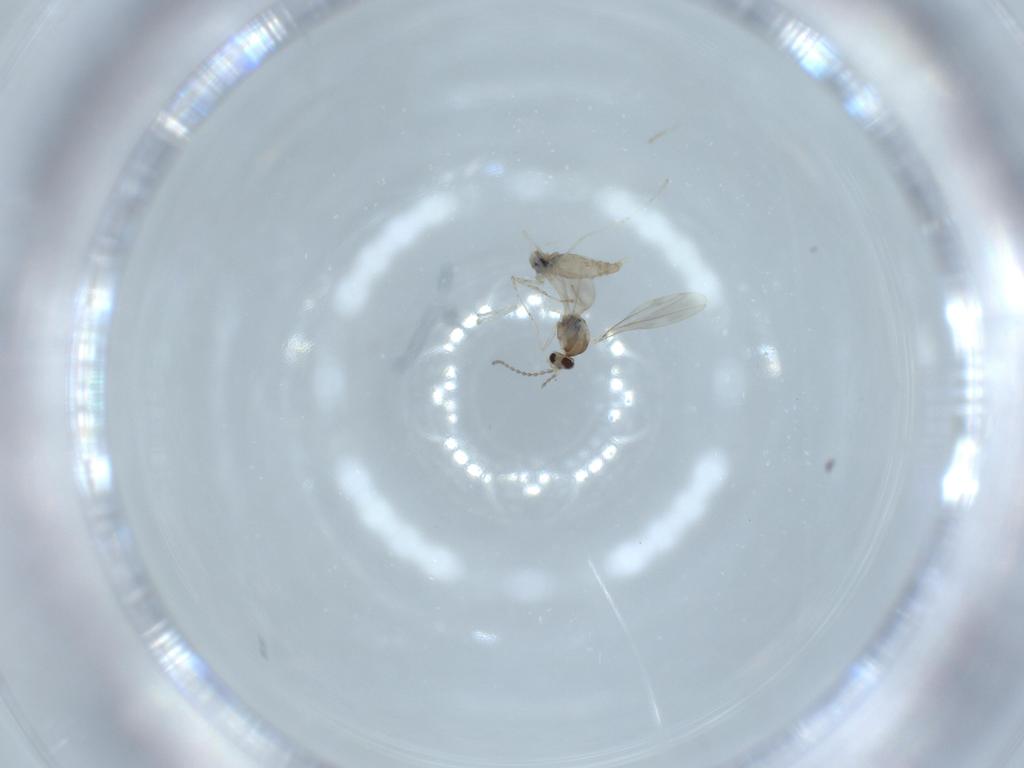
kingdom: Animalia
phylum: Arthropoda
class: Insecta
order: Diptera
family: Cecidomyiidae
